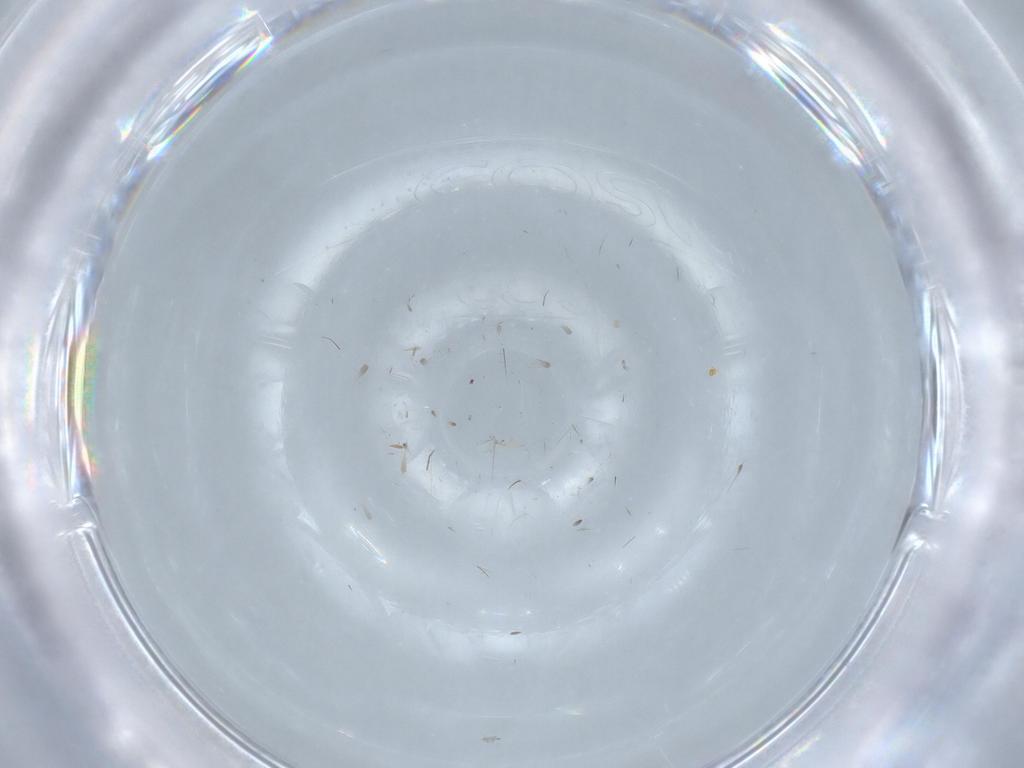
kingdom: Animalia
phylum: Arthropoda
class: Insecta
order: Psocodea
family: Lepidopsocidae
